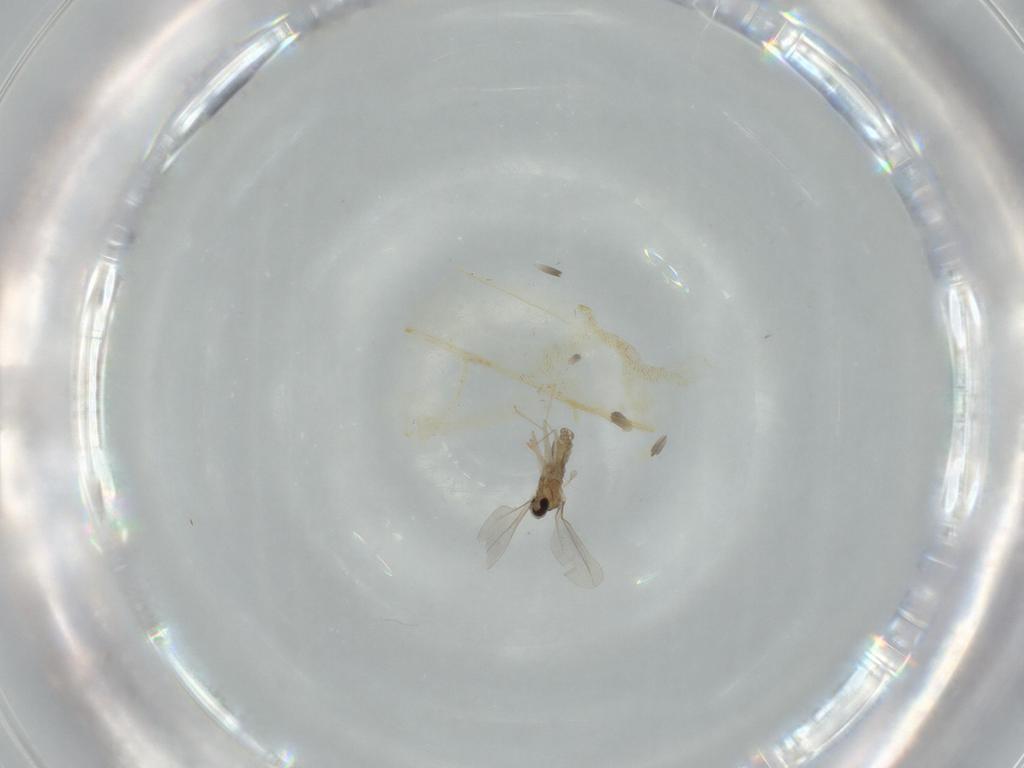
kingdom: Animalia
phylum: Arthropoda
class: Insecta
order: Diptera
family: Cecidomyiidae
